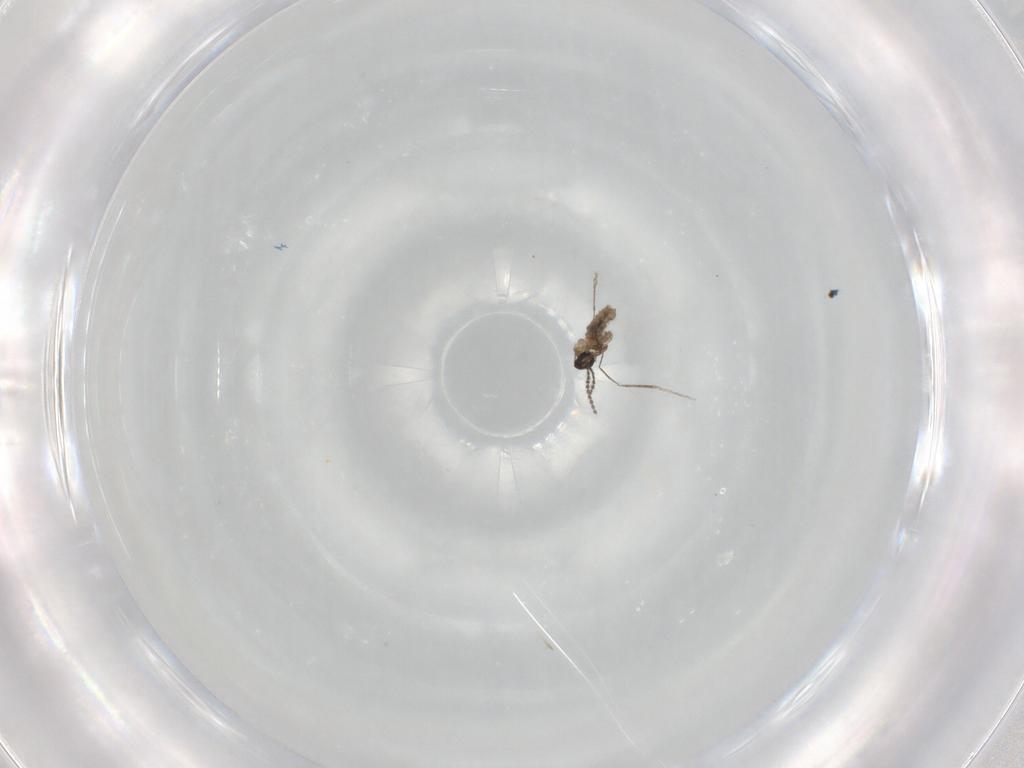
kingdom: Animalia
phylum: Arthropoda
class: Insecta
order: Diptera
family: Cecidomyiidae
